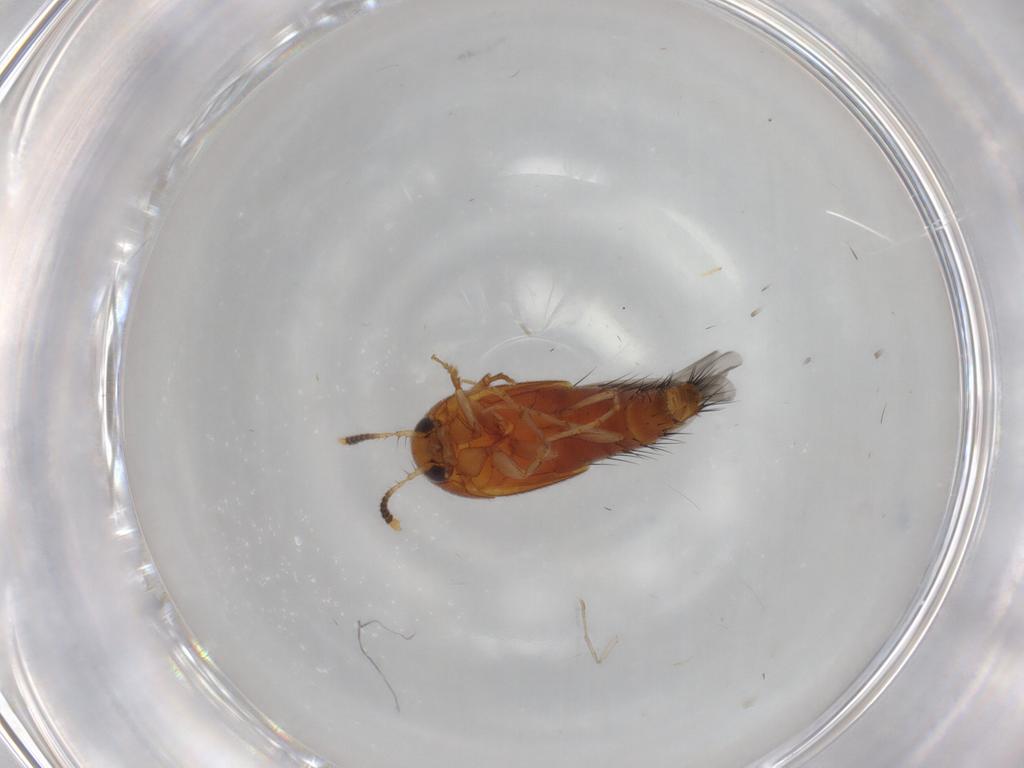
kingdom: Animalia
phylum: Arthropoda
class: Insecta
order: Coleoptera
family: Staphylinidae
